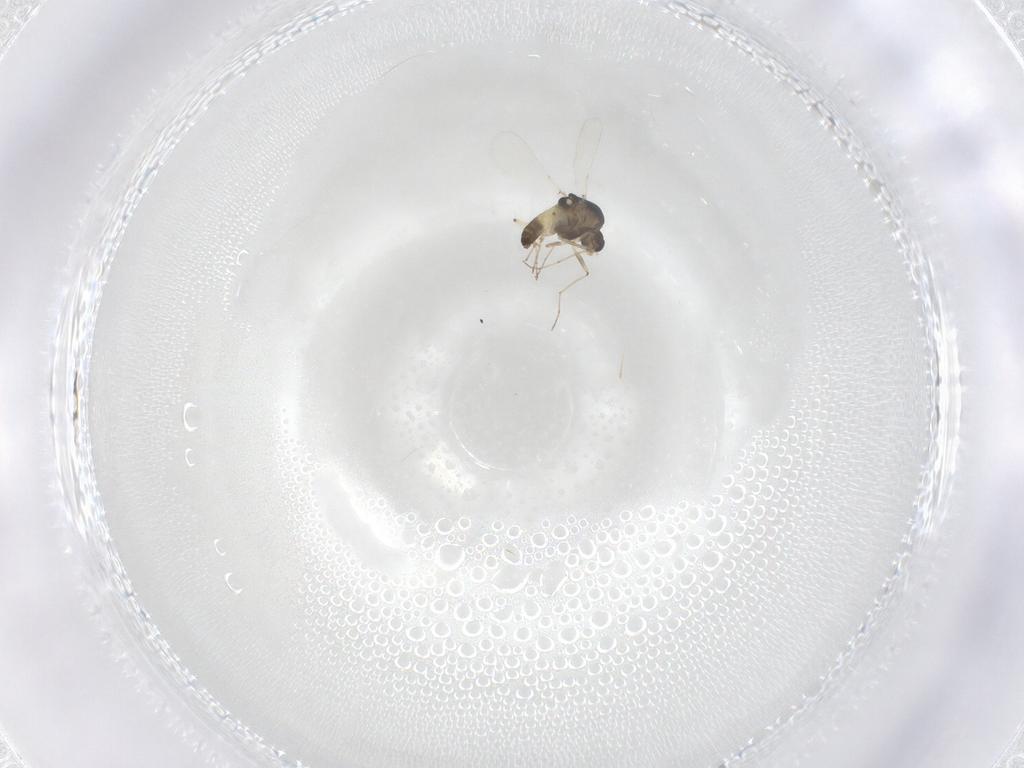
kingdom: Animalia
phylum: Arthropoda
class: Insecta
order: Diptera
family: Chironomidae
